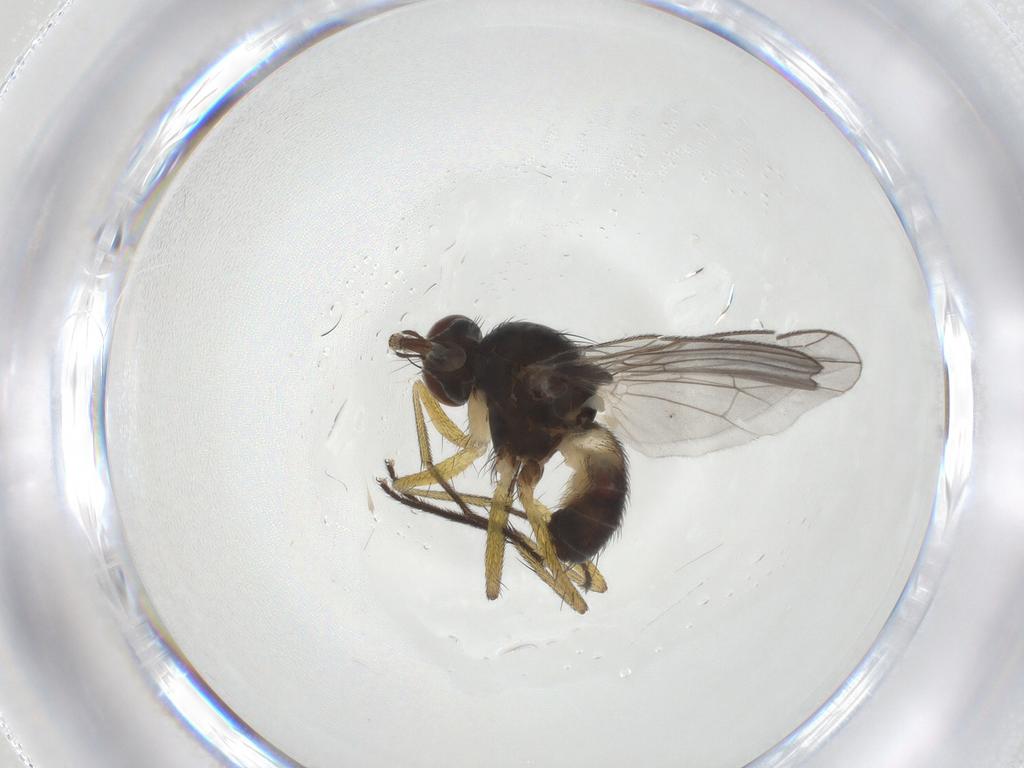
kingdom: Animalia
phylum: Arthropoda
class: Insecta
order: Diptera
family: Muscidae
